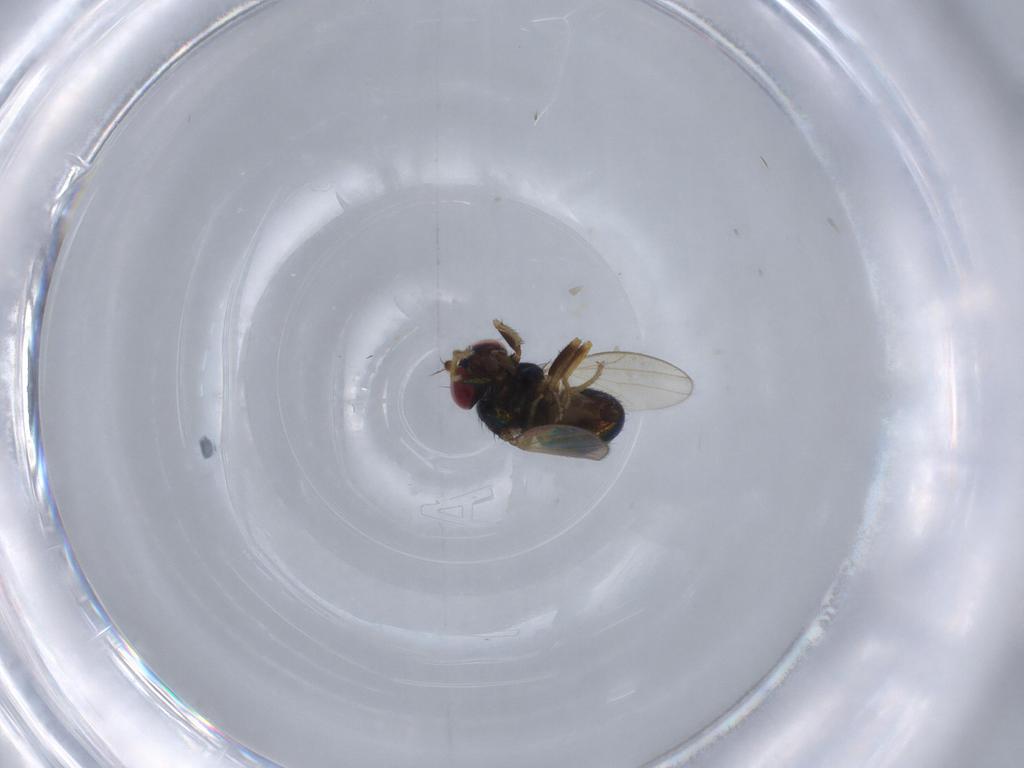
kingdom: Animalia
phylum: Arthropoda
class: Insecta
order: Diptera
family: Ephydridae
